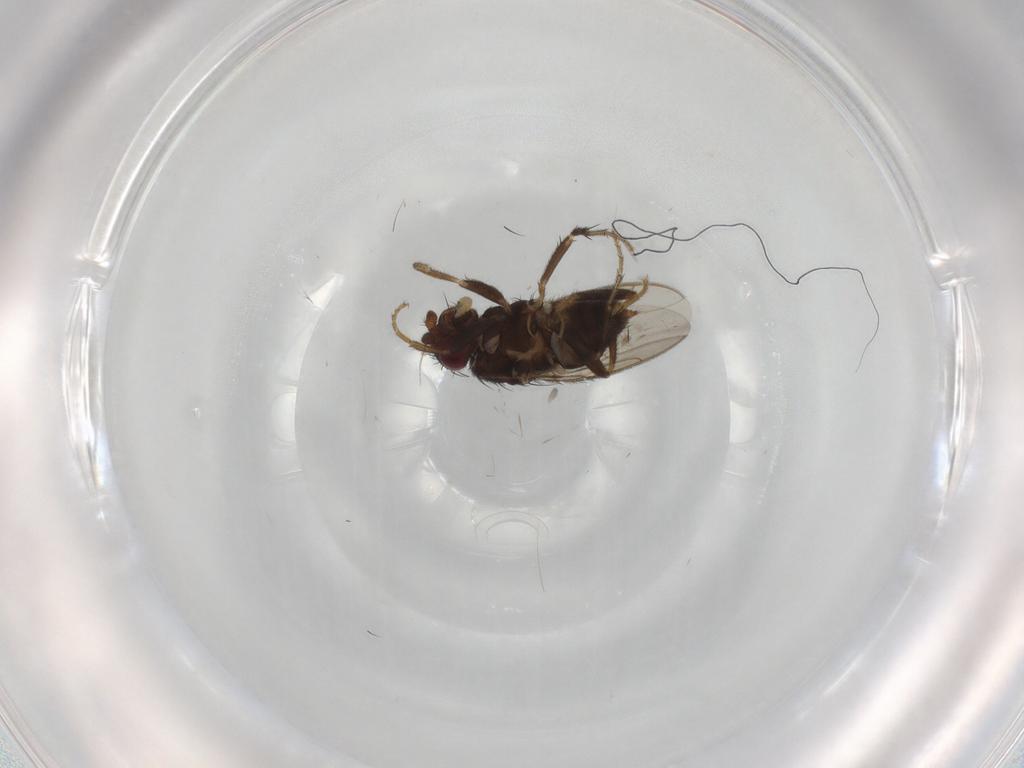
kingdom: Animalia
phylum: Arthropoda
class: Insecta
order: Diptera
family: Sphaeroceridae
